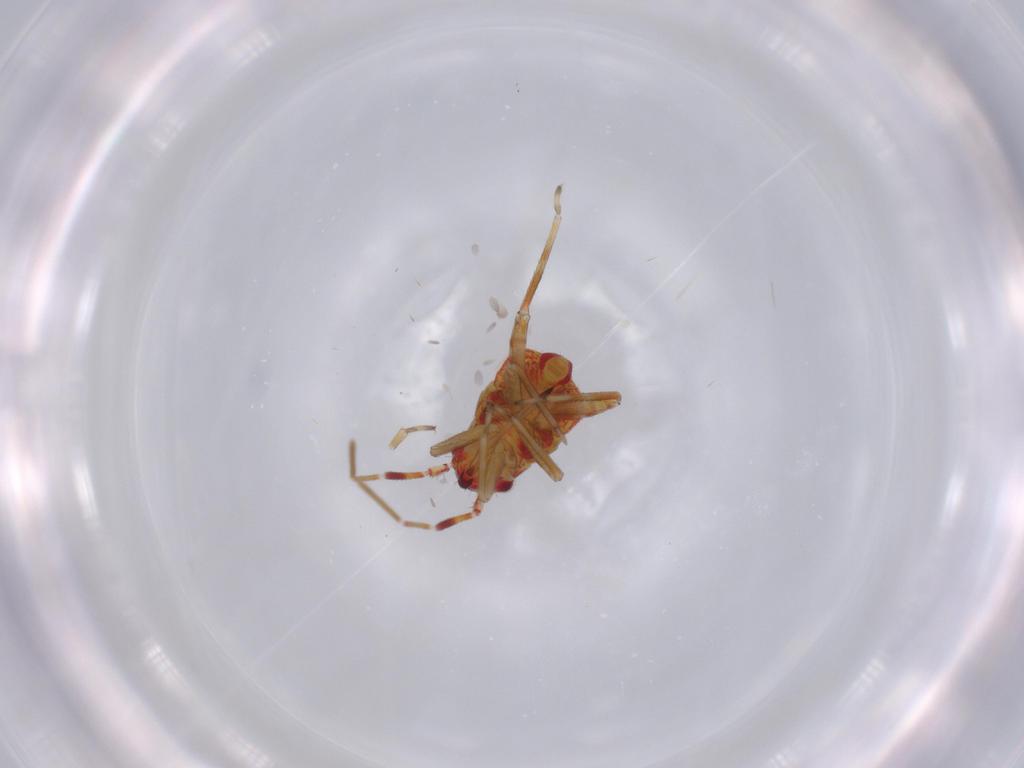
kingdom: Animalia
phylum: Arthropoda
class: Insecta
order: Hemiptera
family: Miridae
